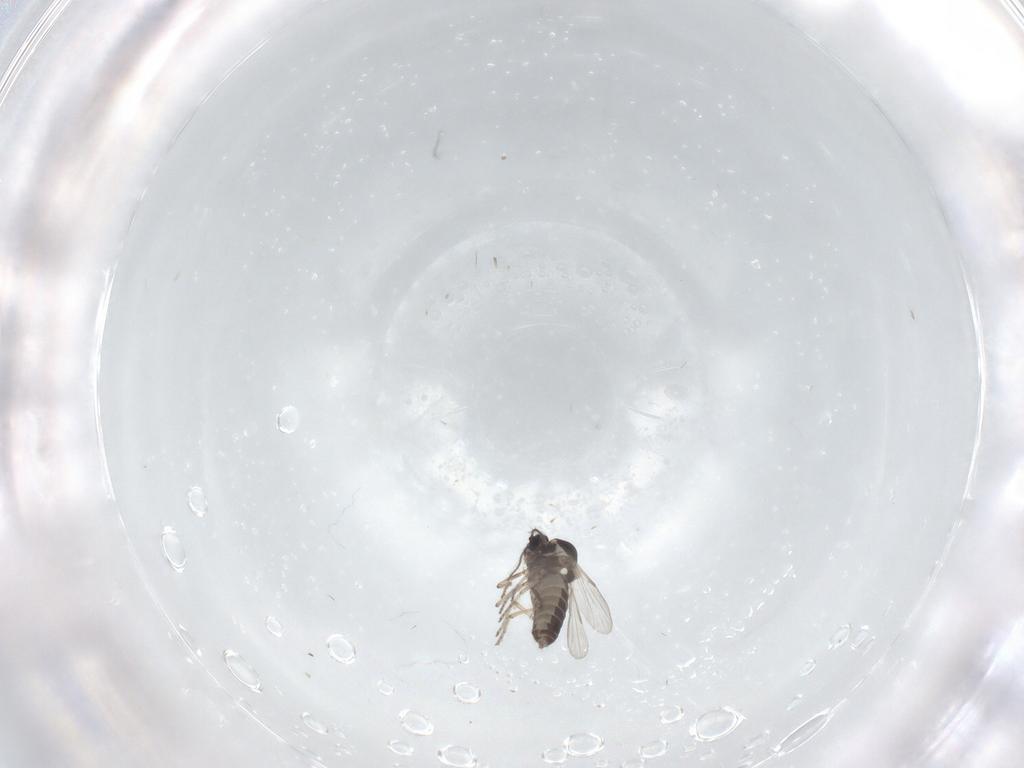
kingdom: Animalia
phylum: Arthropoda
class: Insecta
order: Diptera
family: Ceratopogonidae
